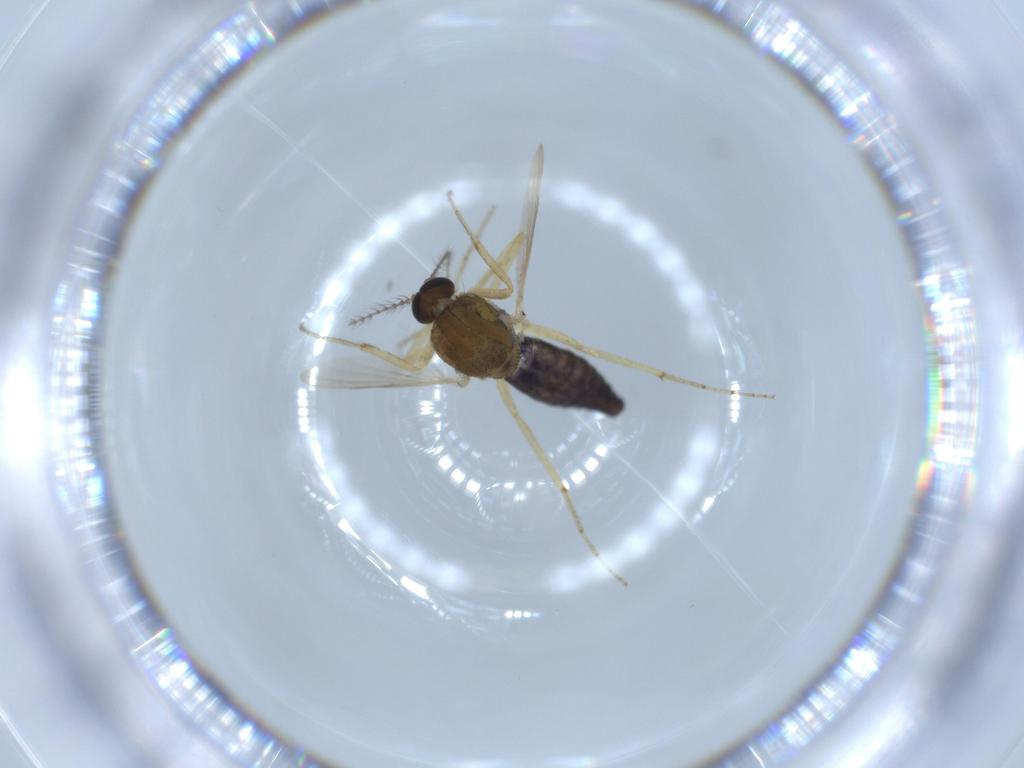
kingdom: Animalia
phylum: Arthropoda
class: Insecta
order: Diptera
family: Ceratopogonidae
